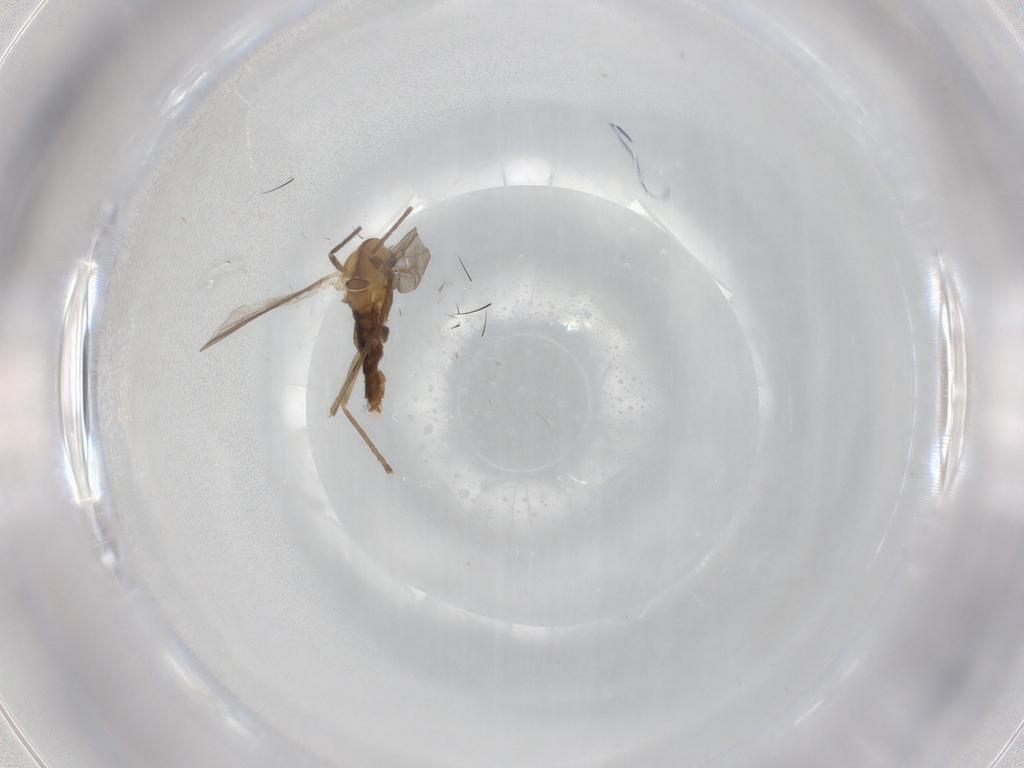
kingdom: Animalia
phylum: Arthropoda
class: Insecta
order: Diptera
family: Chironomidae
